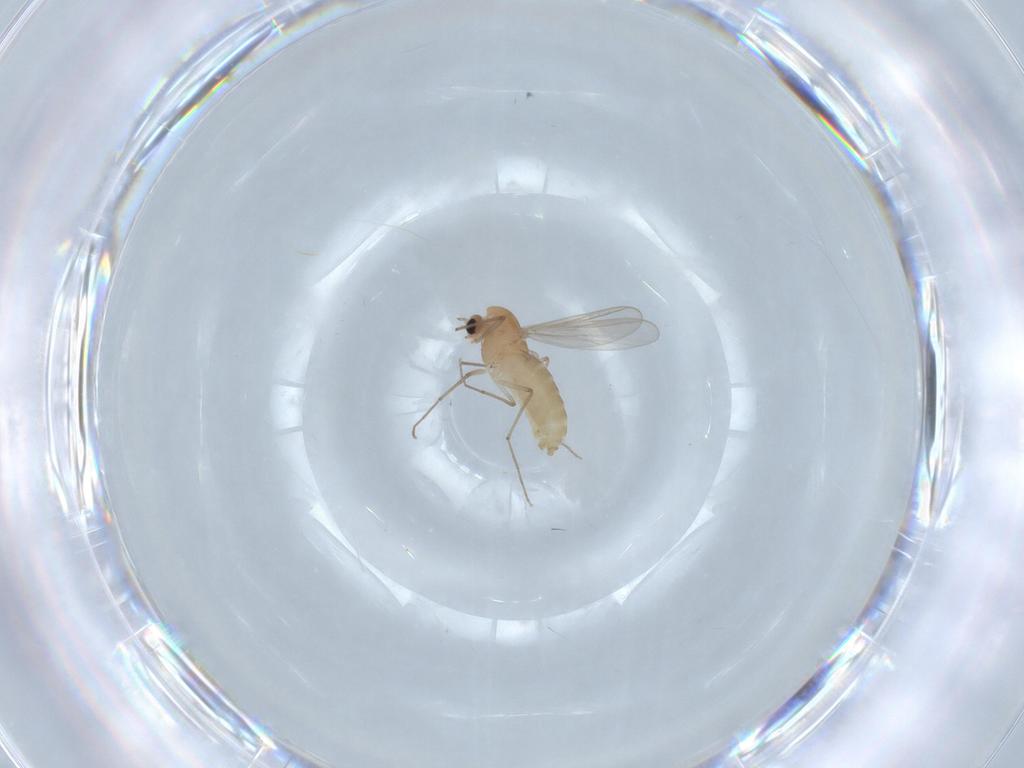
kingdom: Animalia
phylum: Arthropoda
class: Insecta
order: Diptera
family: Chironomidae
